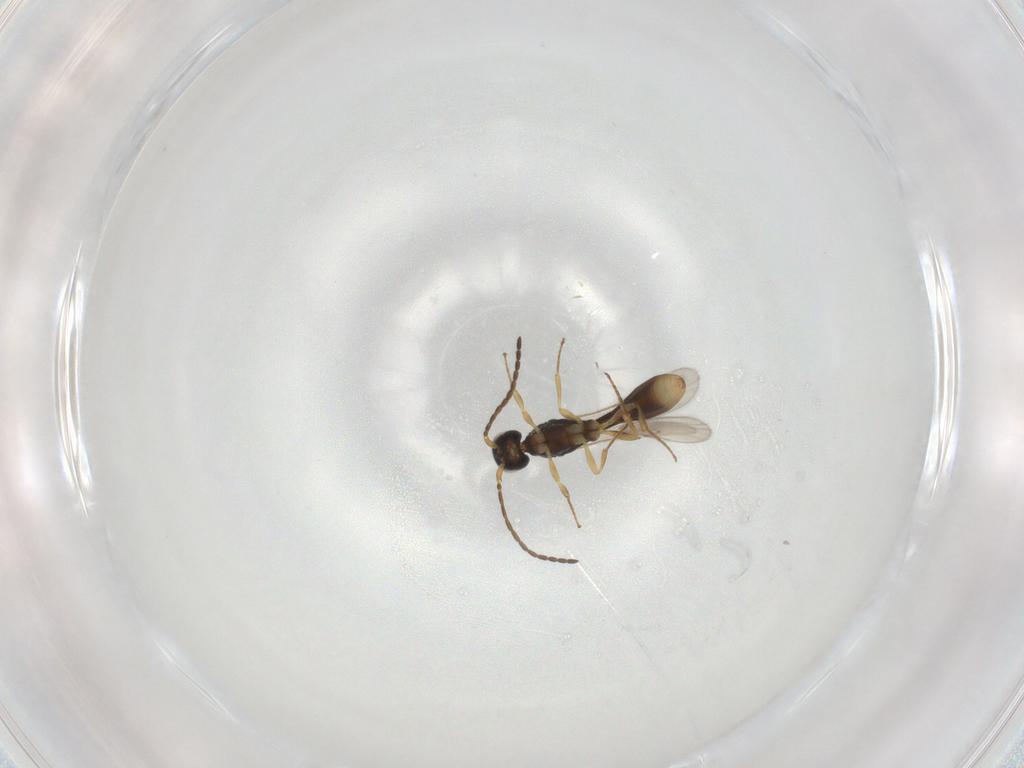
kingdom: Animalia
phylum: Arthropoda
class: Insecta
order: Hymenoptera
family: Scelionidae
